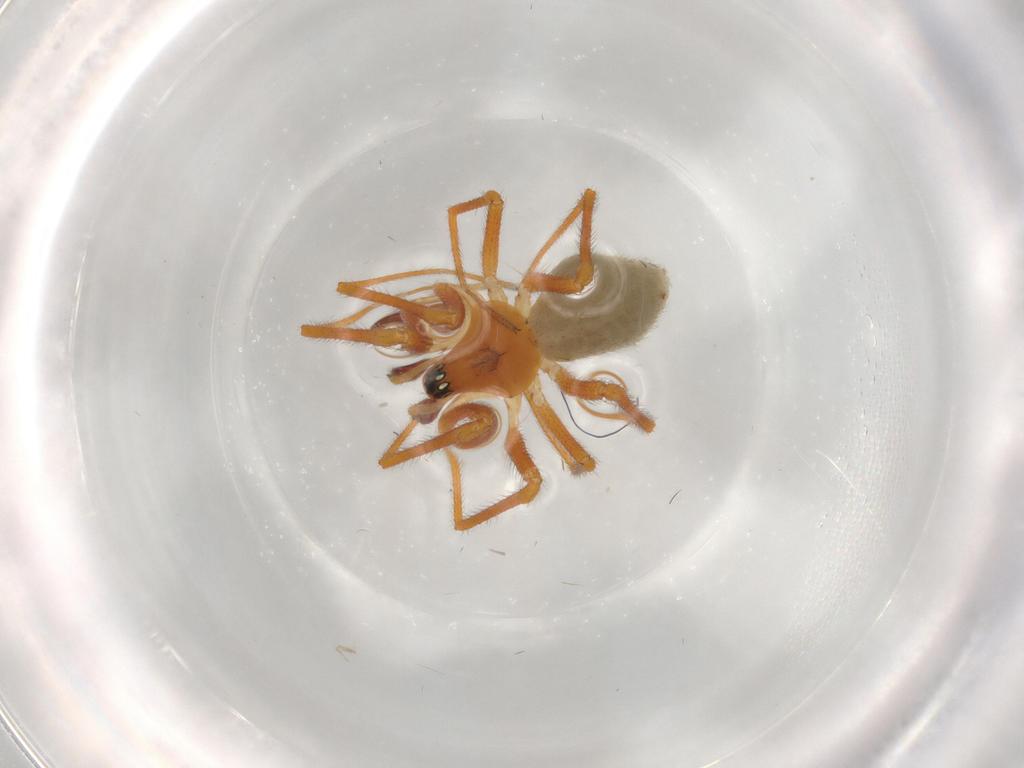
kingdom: Animalia
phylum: Arthropoda
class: Arachnida
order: Araneae
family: Linyphiidae
